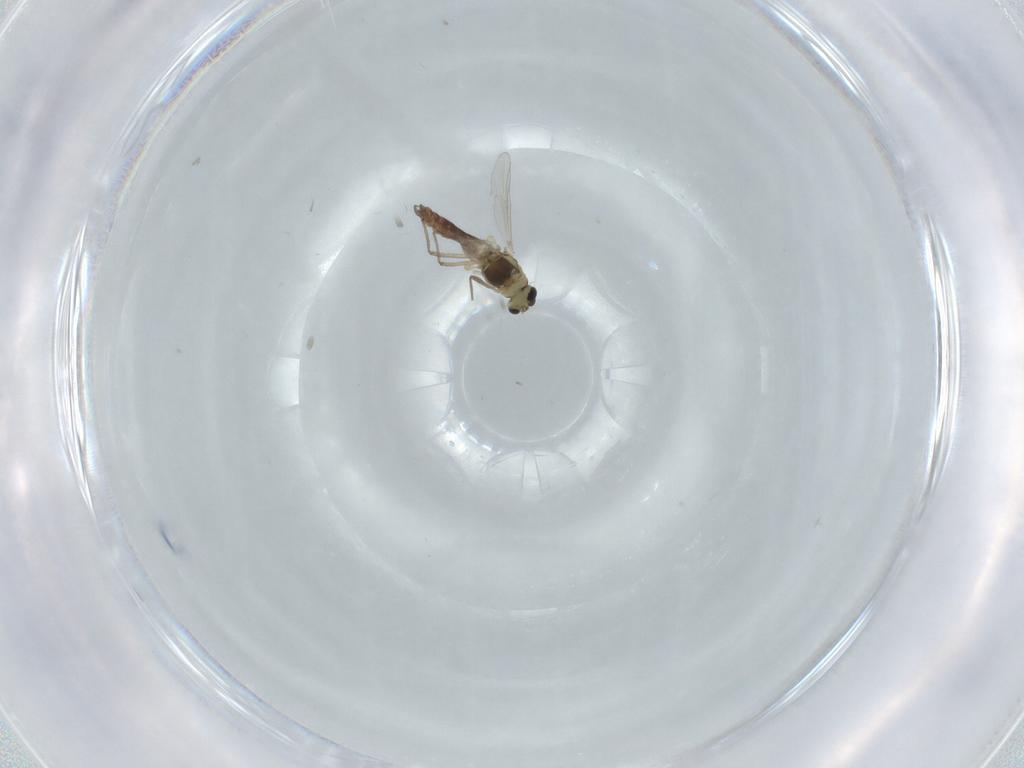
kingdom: Animalia
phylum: Arthropoda
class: Insecta
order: Diptera
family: Chironomidae
